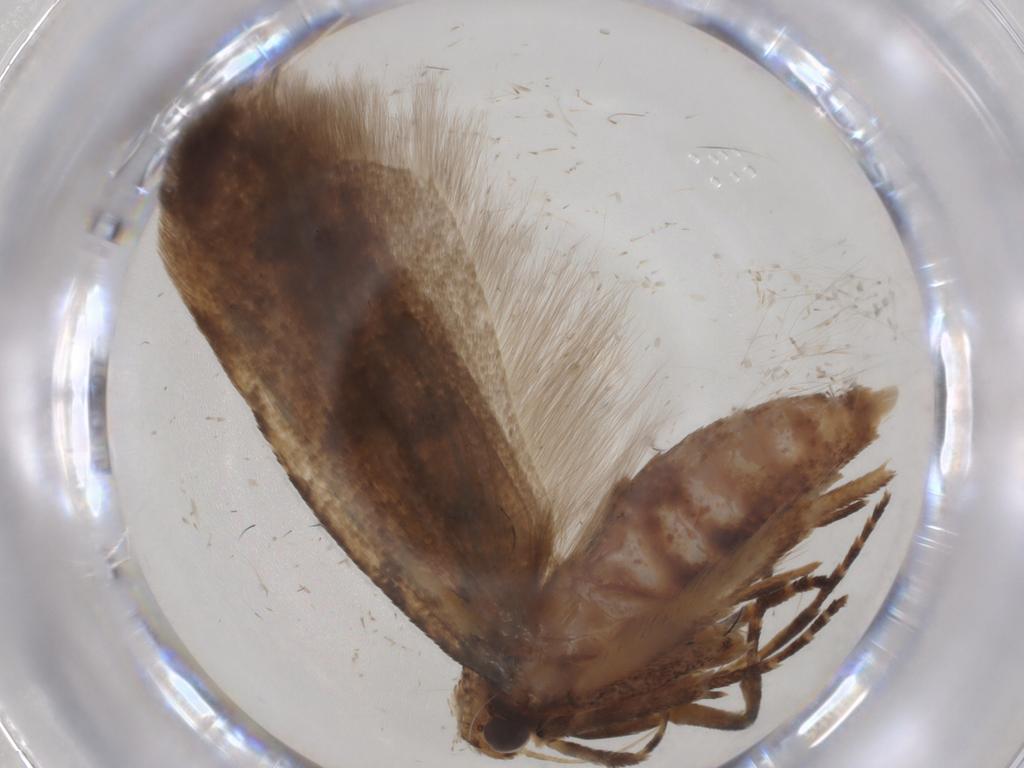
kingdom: Animalia
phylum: Arthropoda
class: Insecta
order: Lepidoptera
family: Gelechiidae
